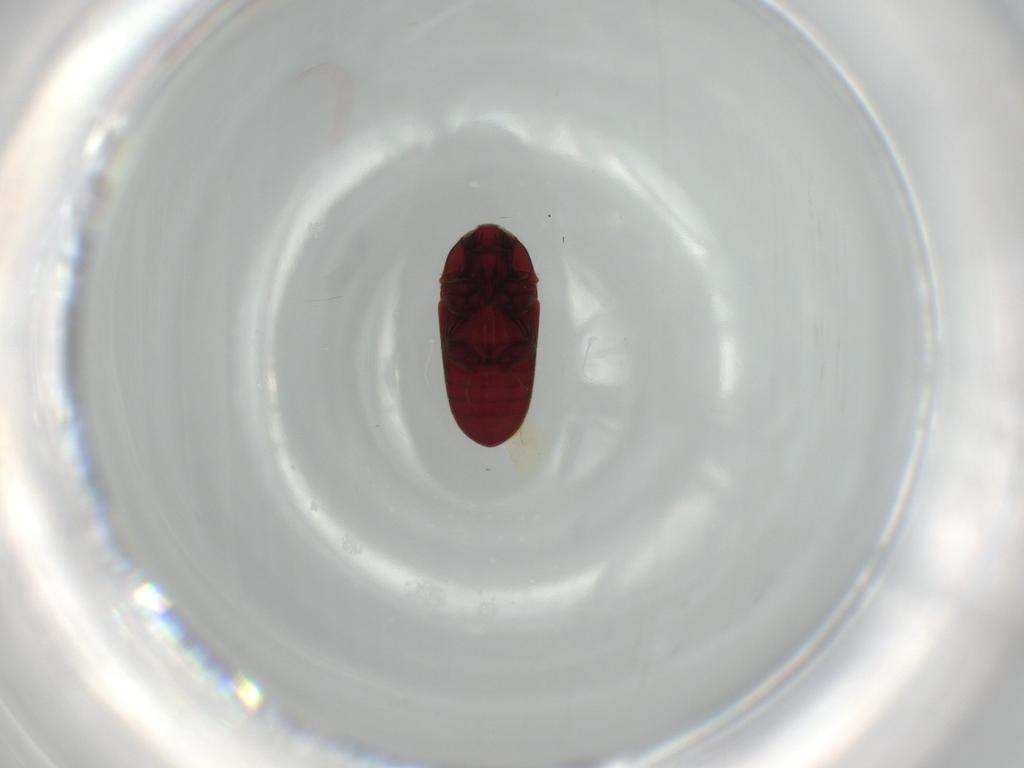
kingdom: Animalia
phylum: Arthropoda
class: Insecta
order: Coleoptera
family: Throscidae
